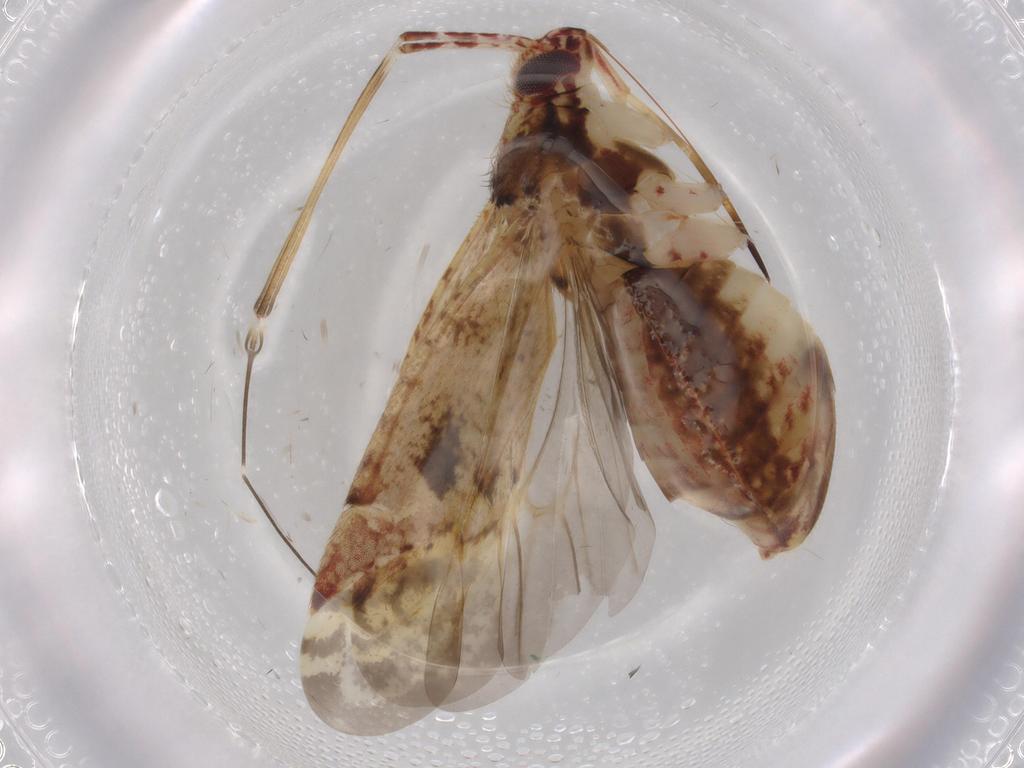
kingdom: Animalia
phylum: Arthropoda
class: Insecta
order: Hemiptera
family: Miridae
